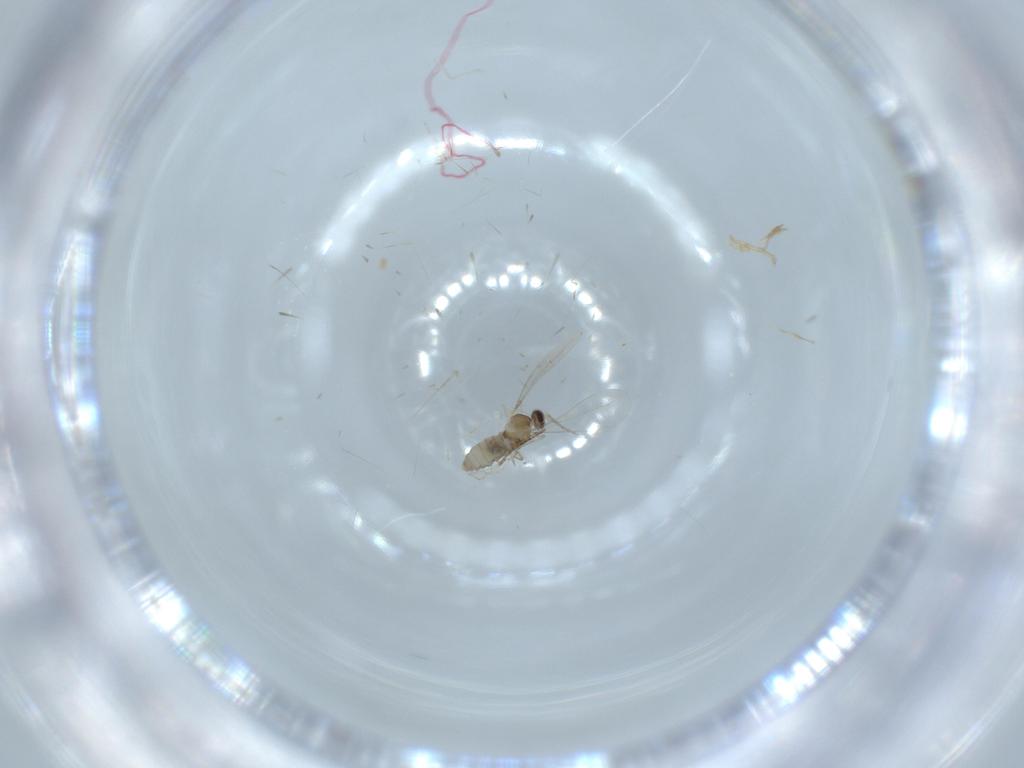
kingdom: Animalia
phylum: Arthropoda
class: Insecta
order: Diptera
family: Cecidomyiidae
